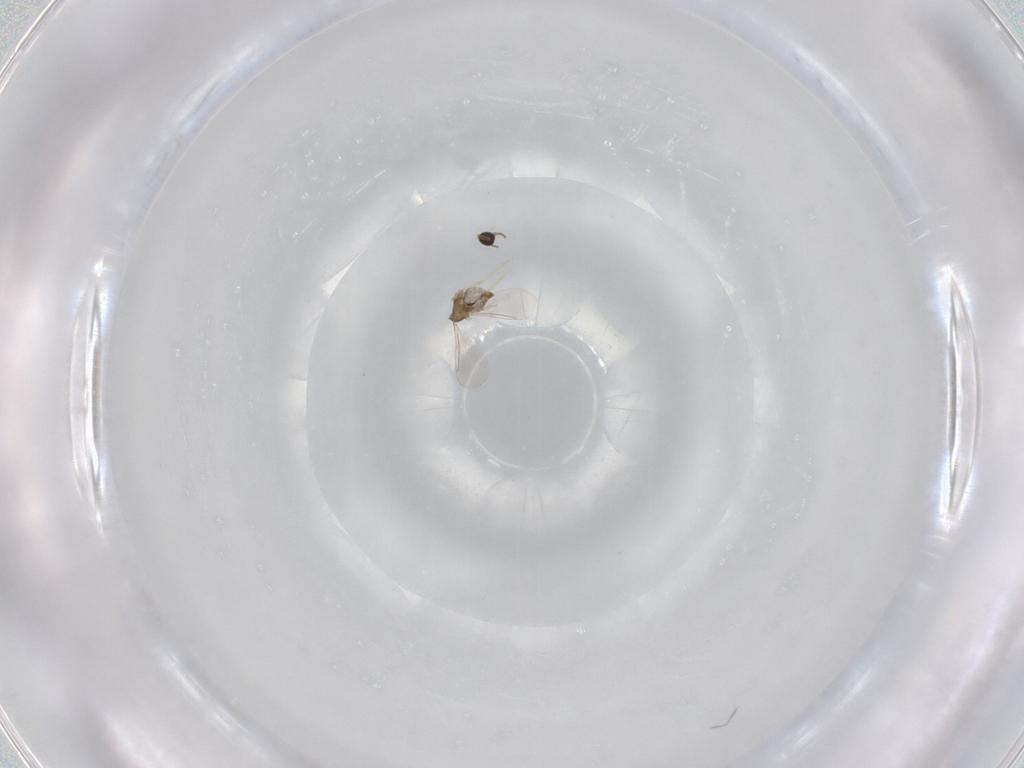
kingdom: Animalia
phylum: Arthropoda
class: Insecta
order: Diptera
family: Cecidomyiidae
